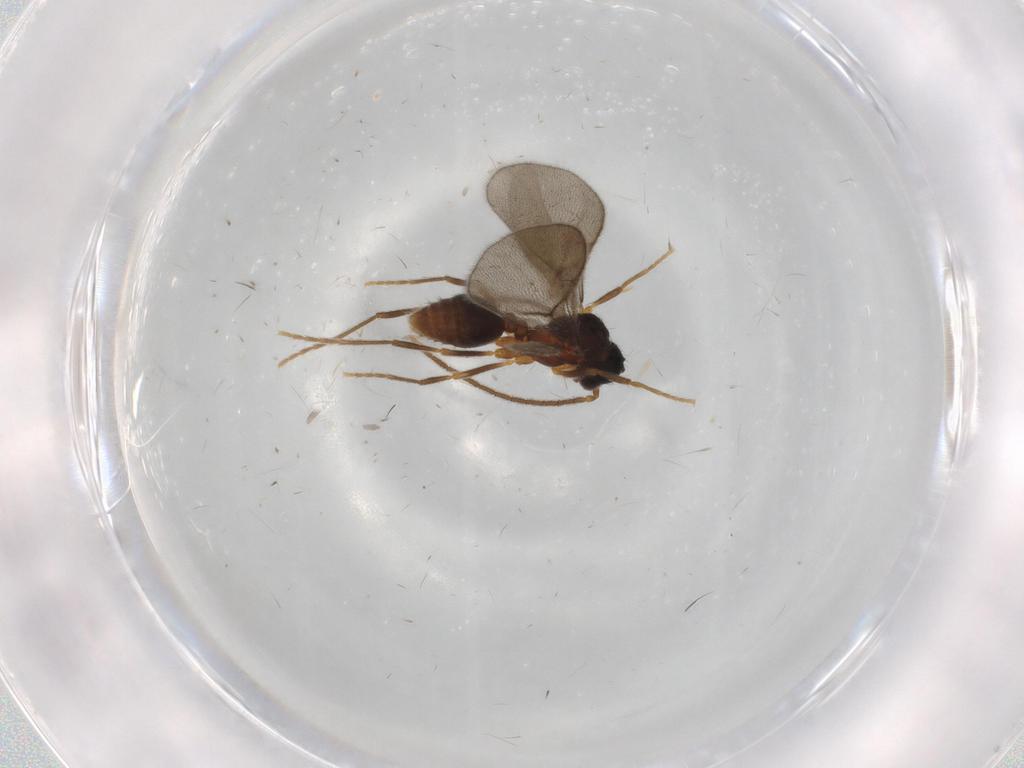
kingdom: Animalia
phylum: Arthropoda
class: Insecta
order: Hymenoptera
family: Formicidae
